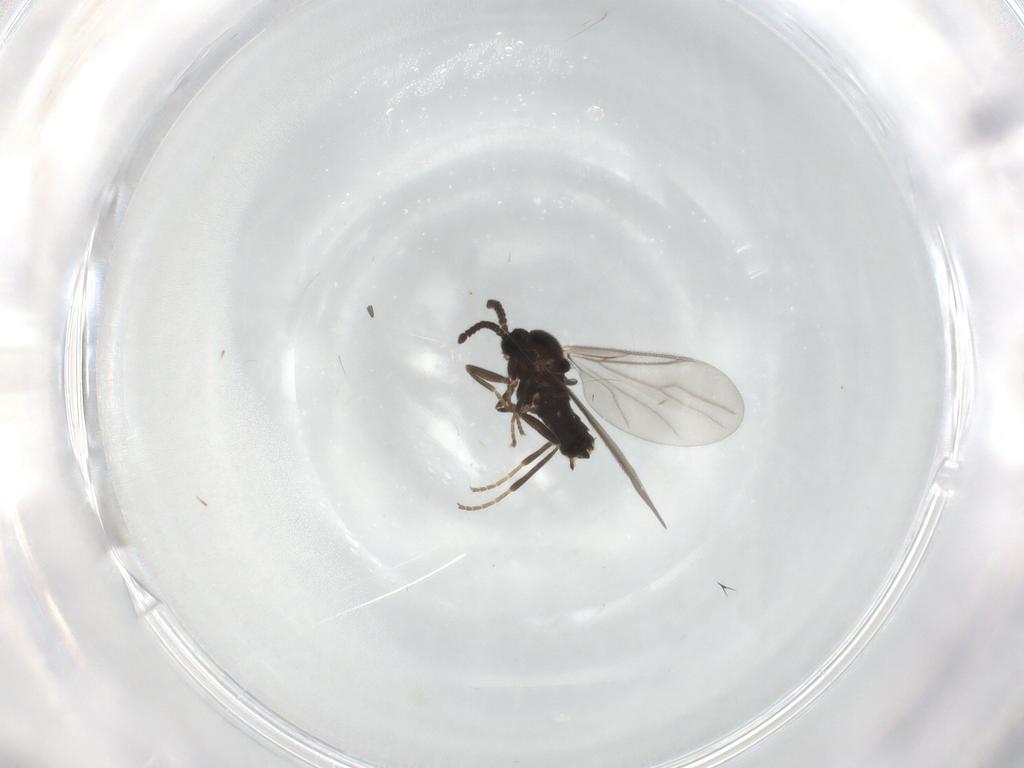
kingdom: Animalia
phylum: Arthropoda
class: Insecta
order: Diptera
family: Scatopsidae
